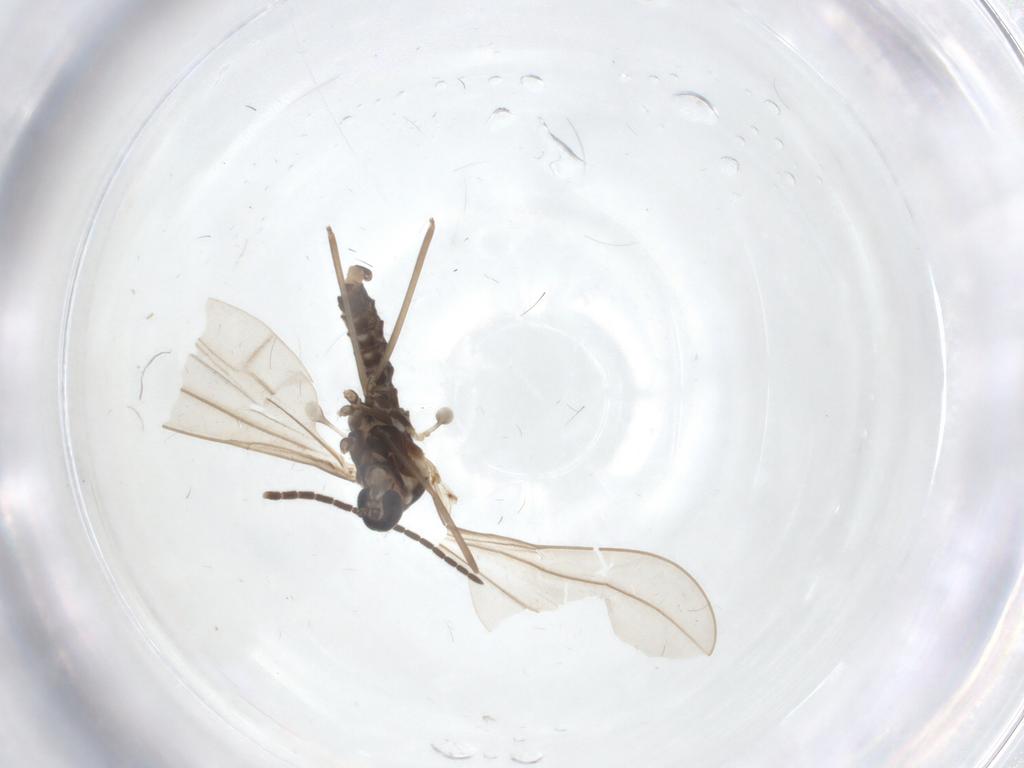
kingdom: Animalia
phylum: Arthropoda
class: Insecta
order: Diptera
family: Cecidomyiidae
